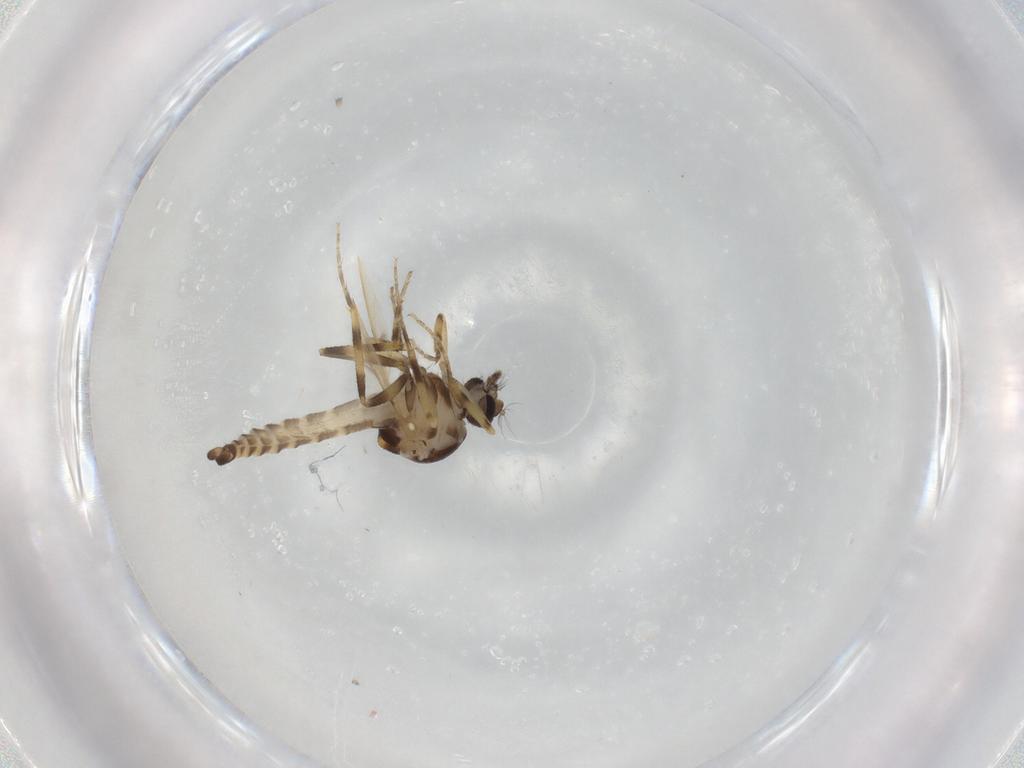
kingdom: Animalia
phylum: Arthropoda
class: Insecta
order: Diptera
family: Ceratopogonidae
